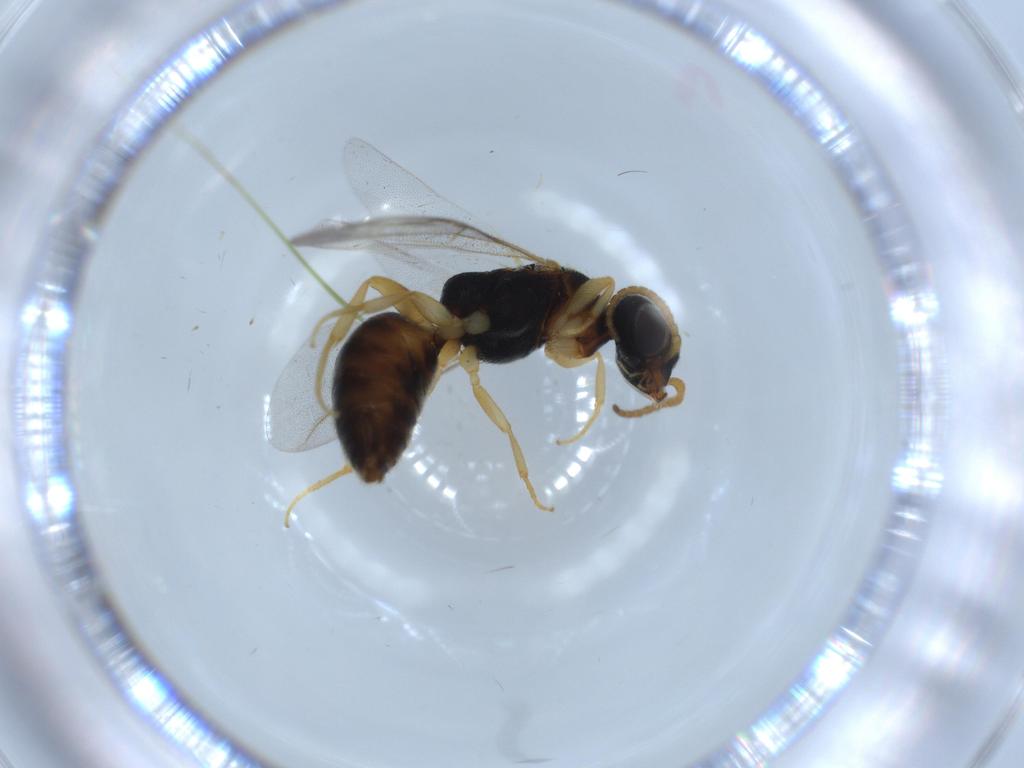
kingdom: Animalia
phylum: Arthropoda
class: Insecta
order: Hymenoptera
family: Bethylidae
